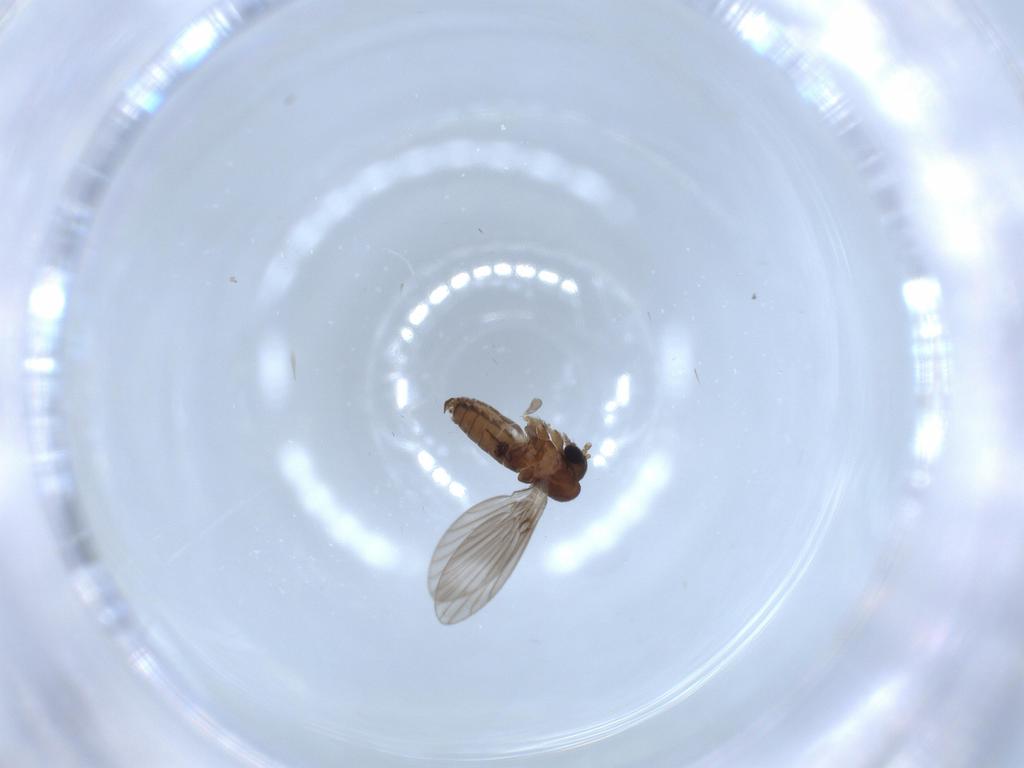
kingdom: Animalia
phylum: Arthropoda
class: Insecta
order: Diptera
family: Psychodidae
